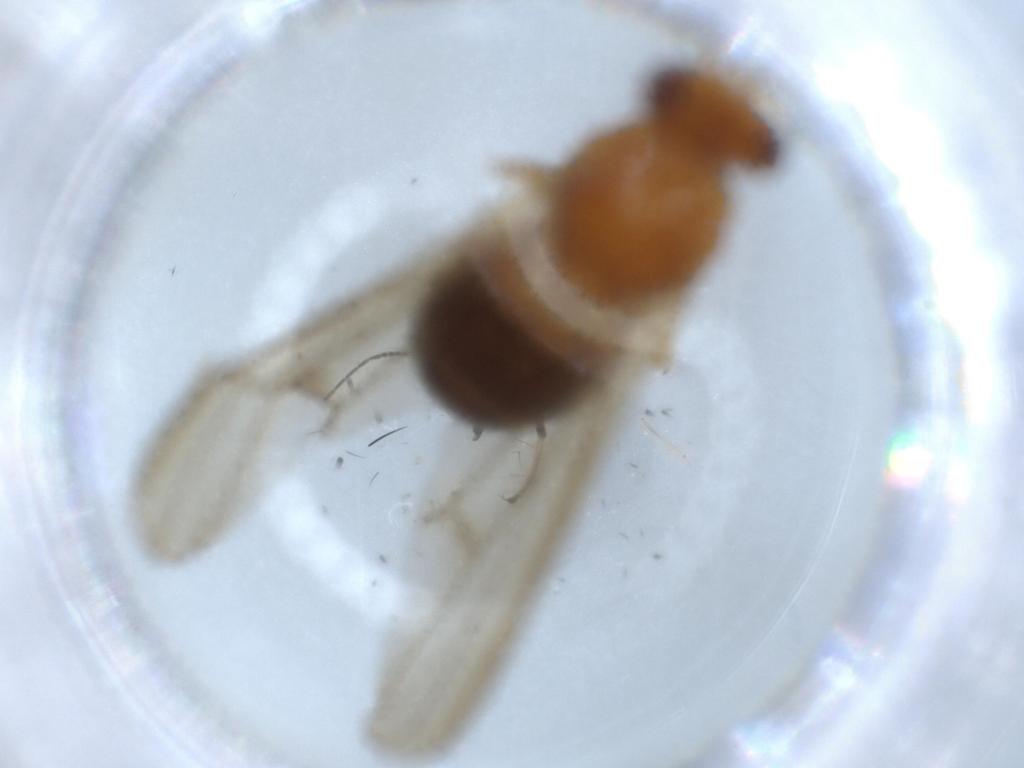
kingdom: Animalia
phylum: Arthropoda
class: Insecta
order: Diptera
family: Lauxaniidae
